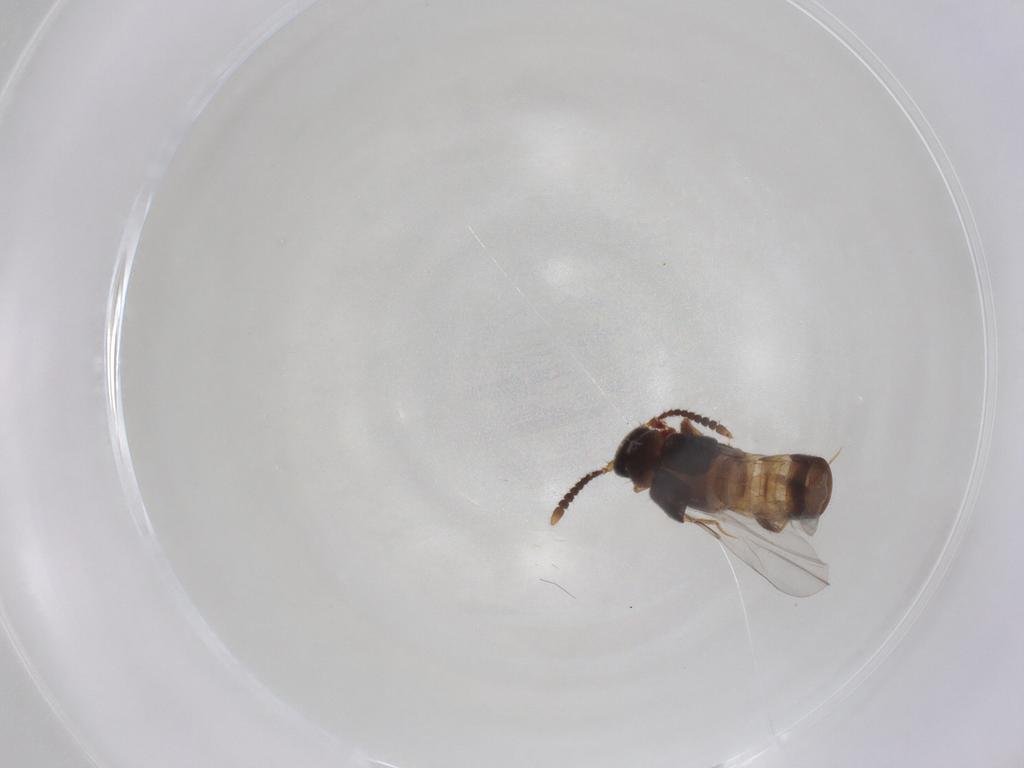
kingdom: Animalia
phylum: Arthropoda
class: Insecta
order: Coleoptera
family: Staphylinidae
